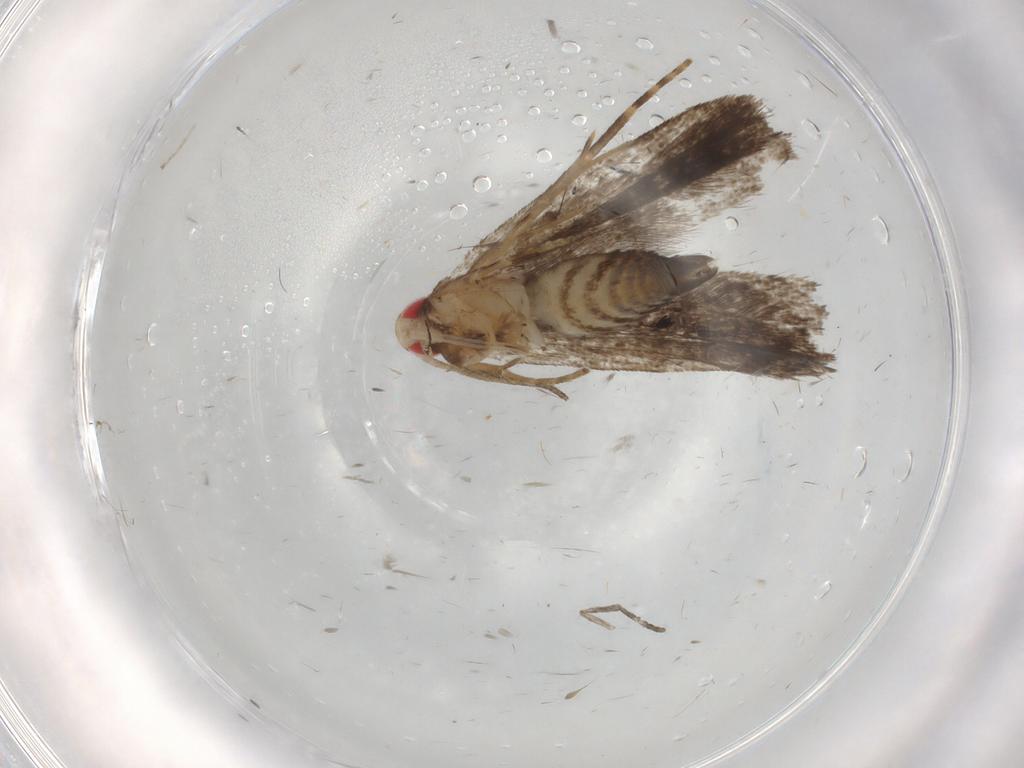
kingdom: Animalia
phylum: Arthropoda
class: Insecta
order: Lepidoptera
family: Gelechiidae
